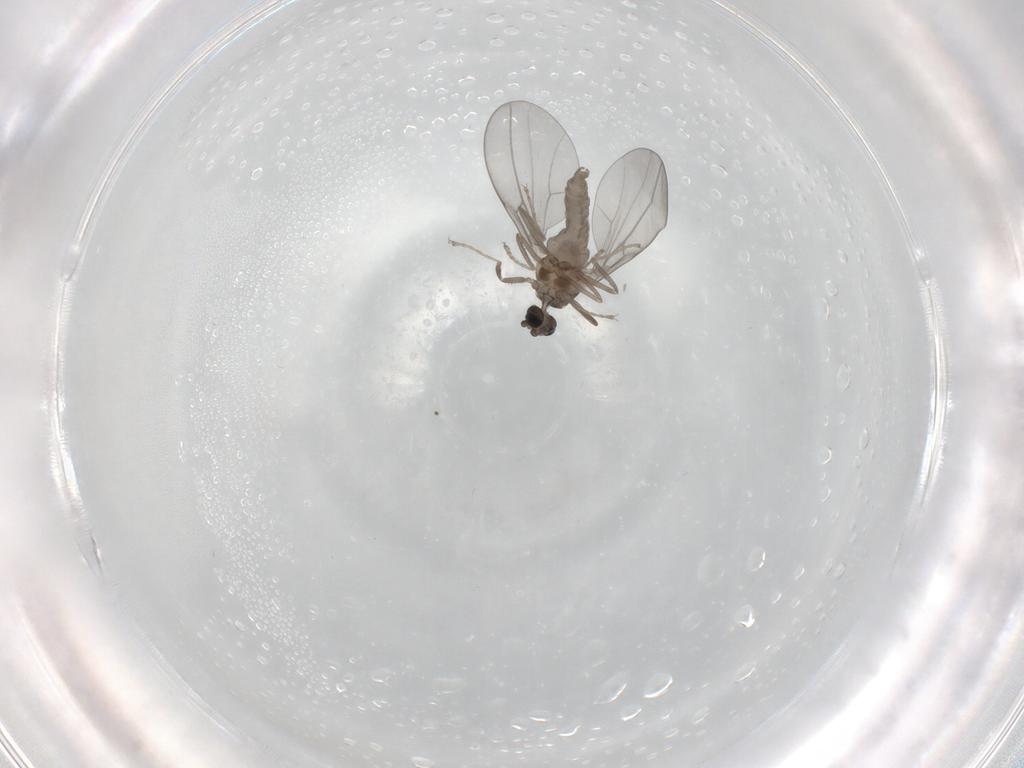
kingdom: Animalia
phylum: Arthropoda
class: Insecta
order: Diptera
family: Cecidomyiidae
